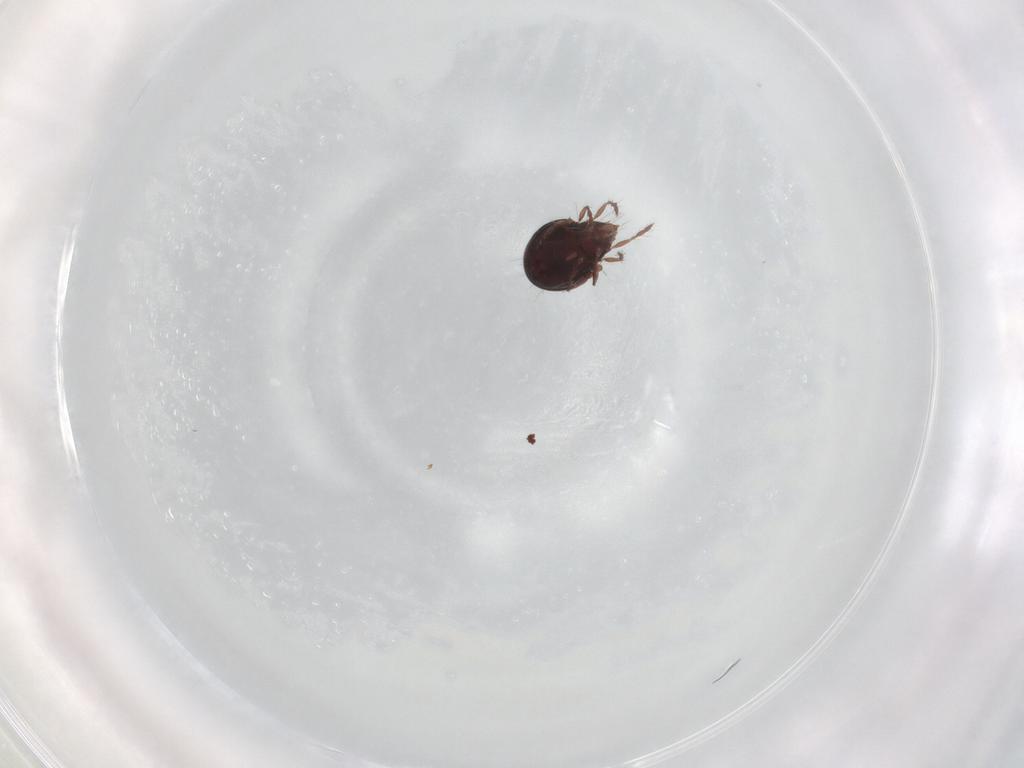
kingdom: Animalia
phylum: Arthropoda
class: Arachnida
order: Sarcoptiformes
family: Ceratoppiidae
